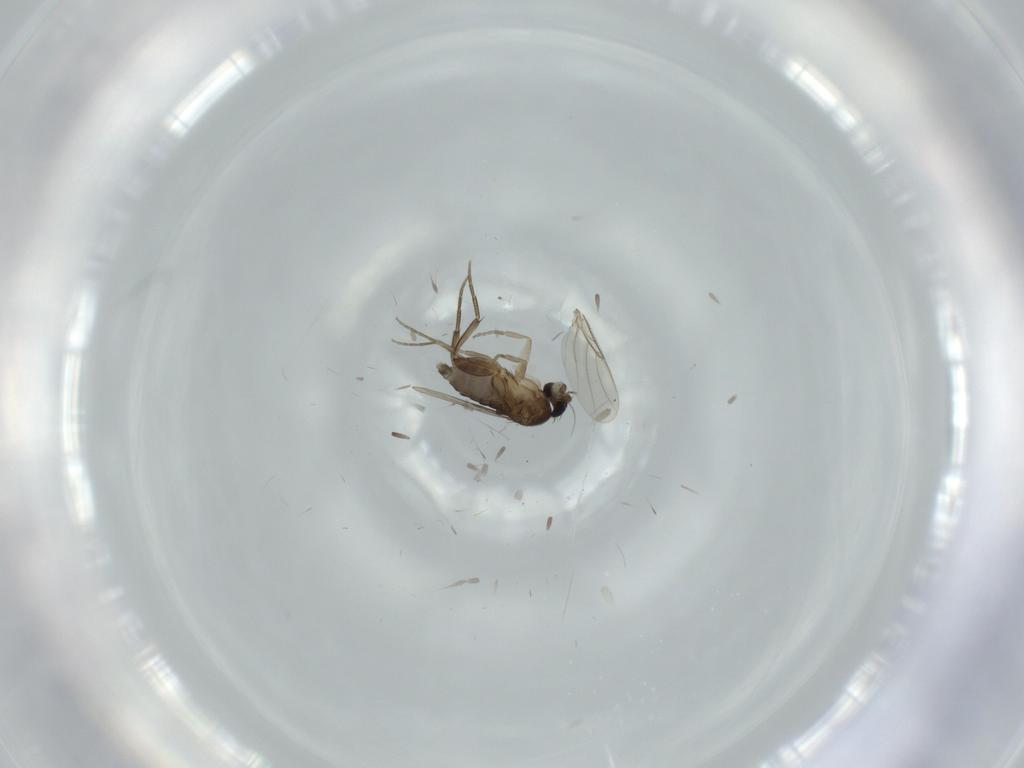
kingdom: Animalia
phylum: Arthropoda
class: Insecta
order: Diptera
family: Phoridae
